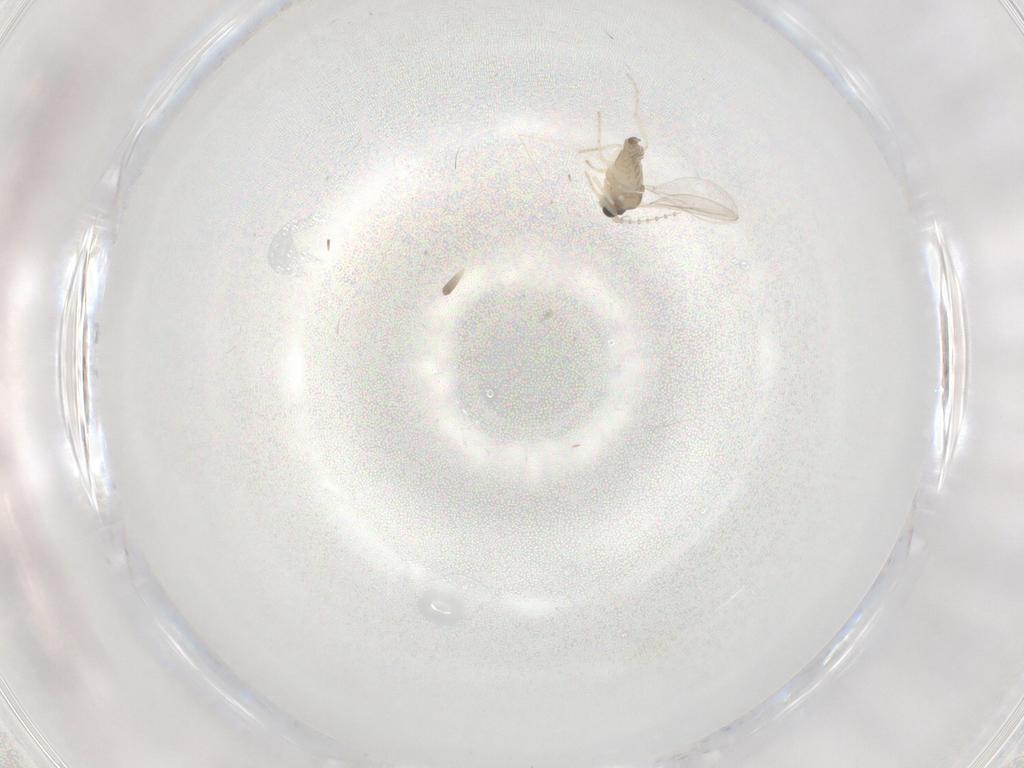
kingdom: Animalia
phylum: Arthropoda
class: Insecta
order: Diptera
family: Cecidomyiidae
